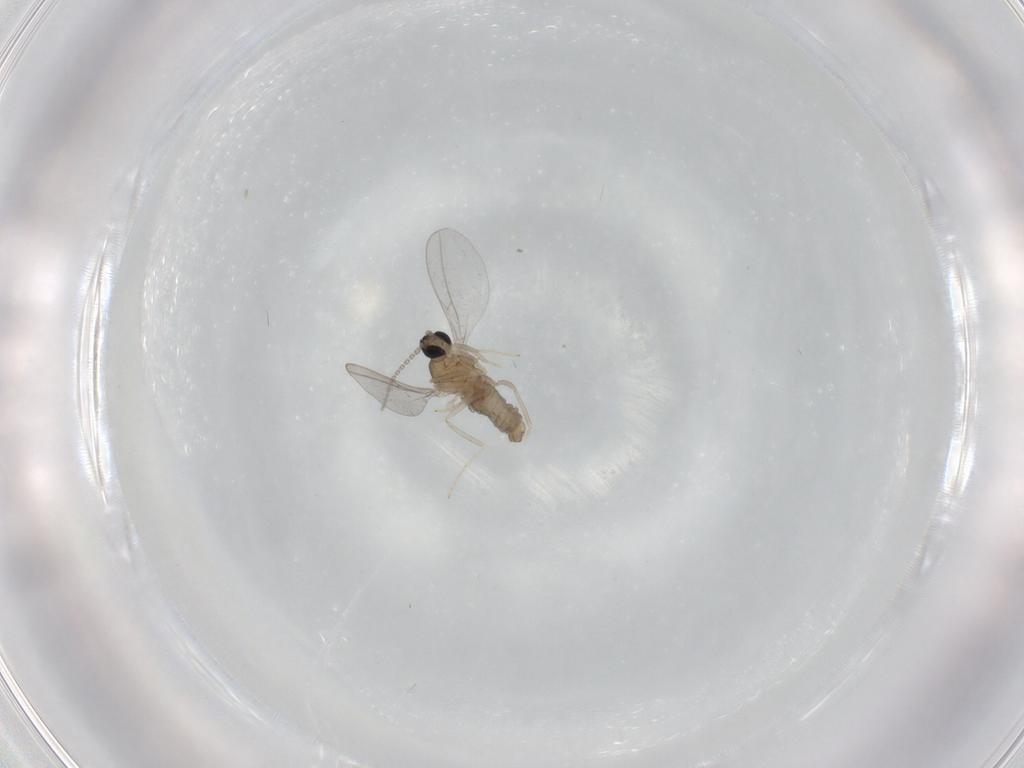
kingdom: Animalia
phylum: Arthropoda
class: Insecta
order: Diptera
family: Cecidomyiidae
